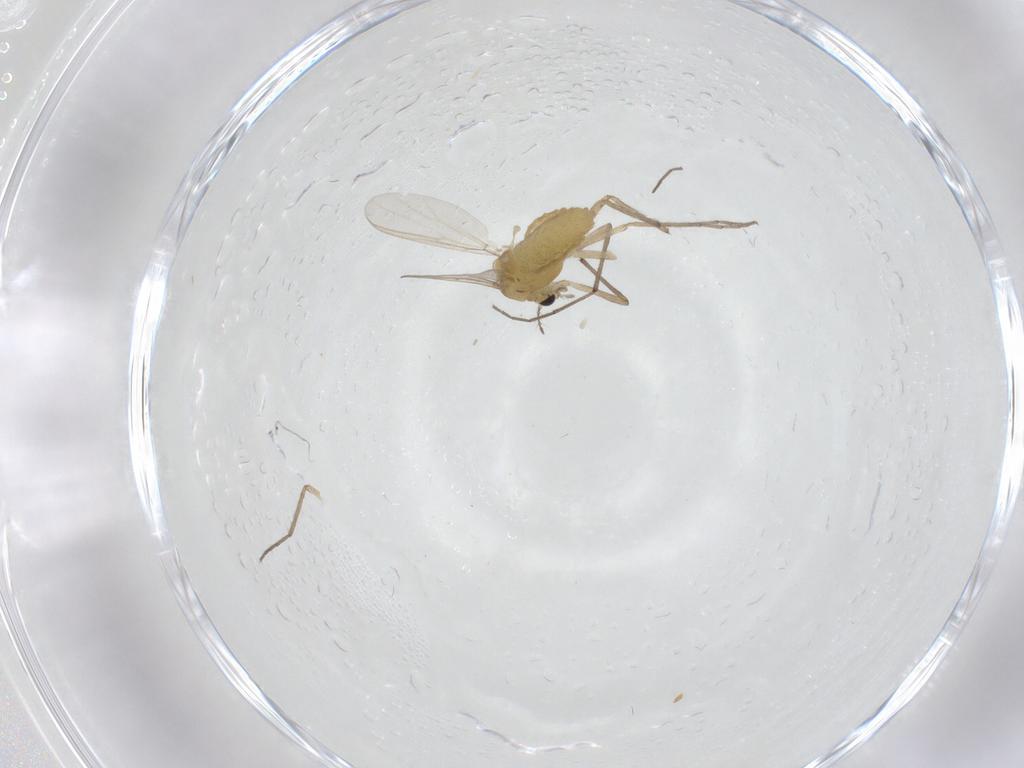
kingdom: Animalia
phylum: Arthropoda
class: Insecta
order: Diptera
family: Chironomidae
